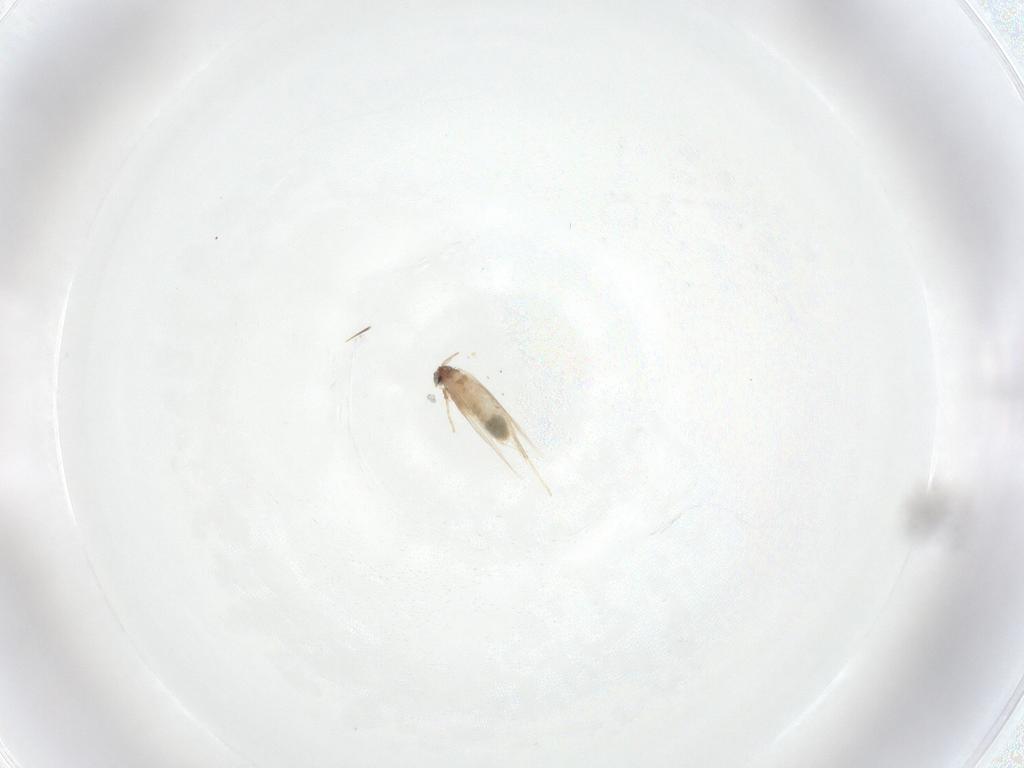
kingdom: Animalia
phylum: Arthropoda
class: Insecta
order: Lepidoptera
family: Nepticulidae
